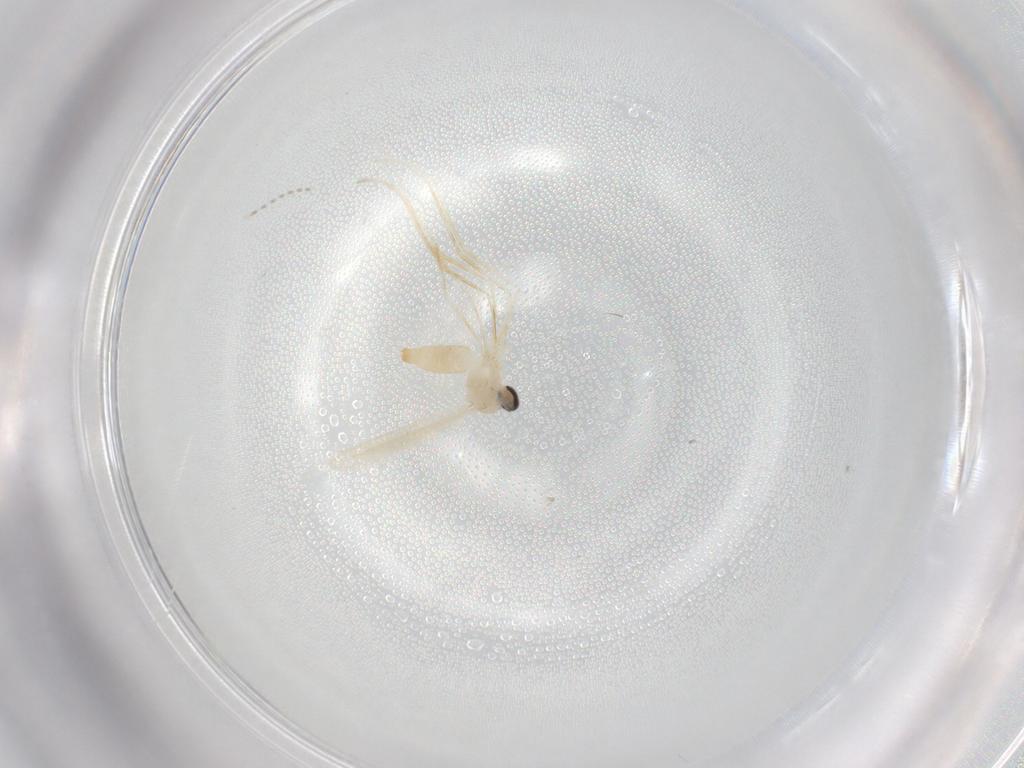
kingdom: Animalia
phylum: Arthropoda
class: Insecta
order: Diptera
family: Cecidomyiidae
